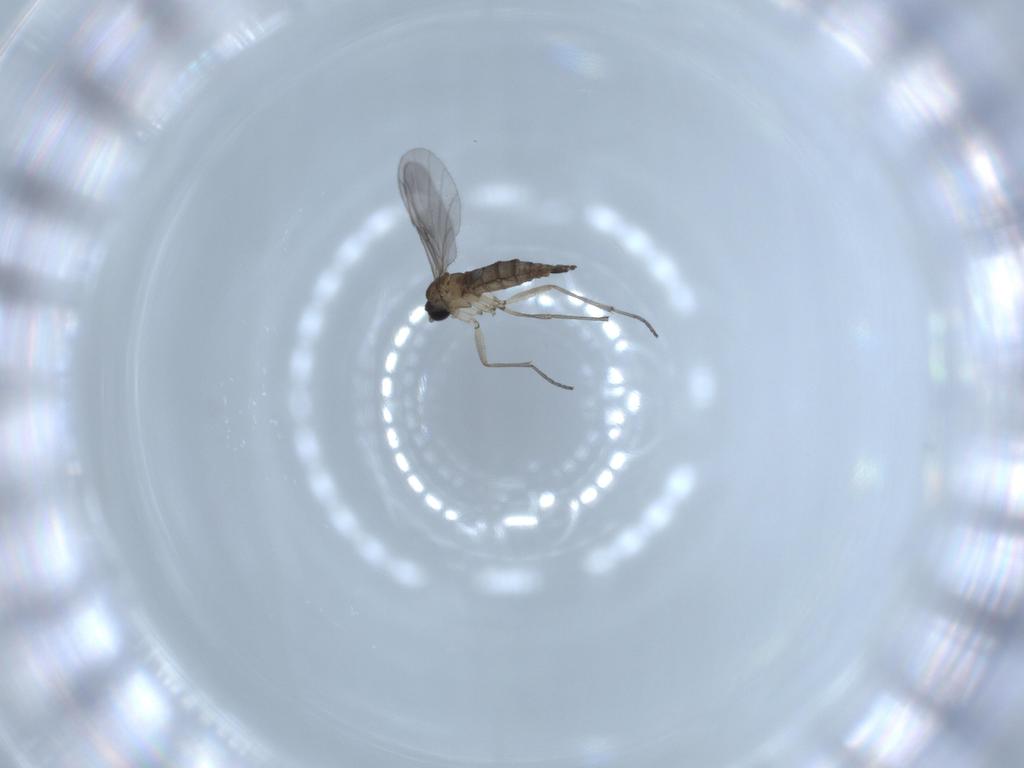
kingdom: Animalia
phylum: Arthropoda
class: Insecta
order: Diptera
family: Sciaridae
